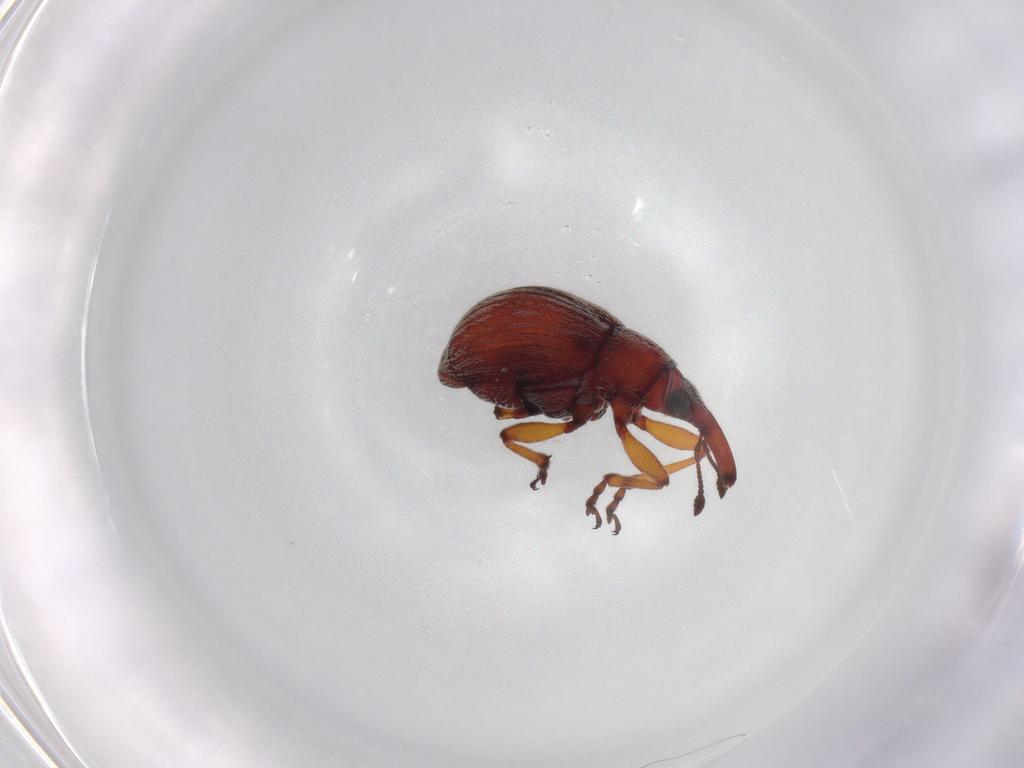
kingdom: Animalia
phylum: Arthropoda
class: Insecta
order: Coleoptera
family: Brentidae
